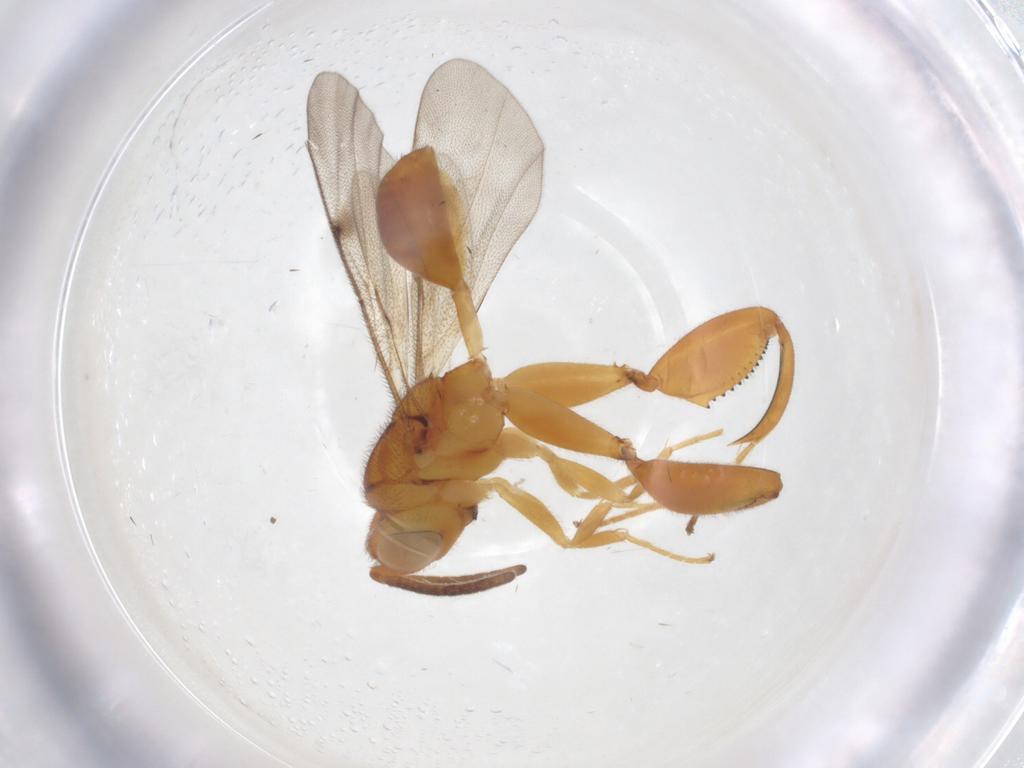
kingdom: Animalia
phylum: Arthropoda
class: Insecta
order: Hymenoptera
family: Chalcididae
